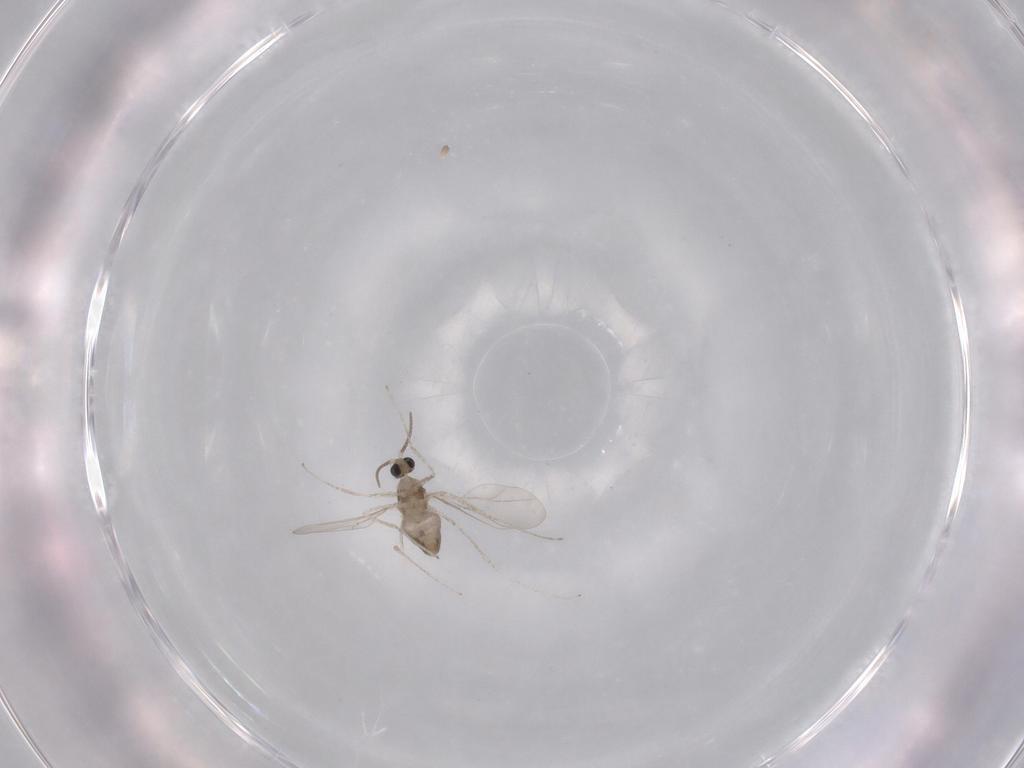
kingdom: Animalia
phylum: Arthropoda
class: Insecta
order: Diptera
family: Cecidomyiidae
